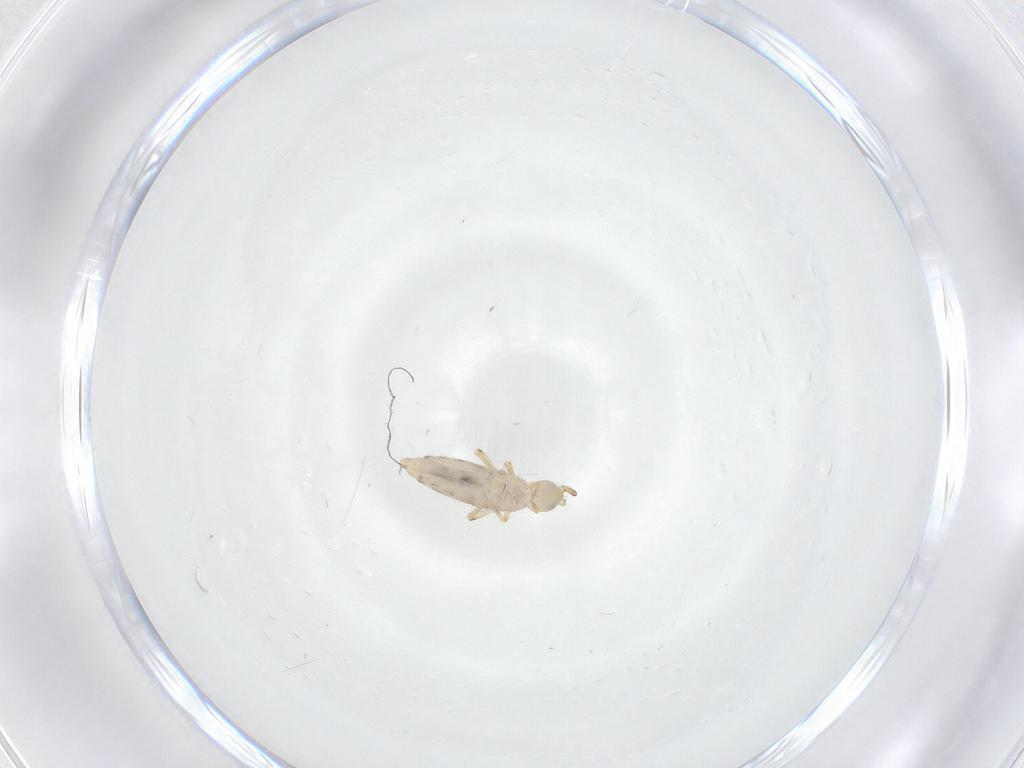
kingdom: Animalia
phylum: Arthropoda
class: Collembola
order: Entomobryomorpha
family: Entomobryidae
